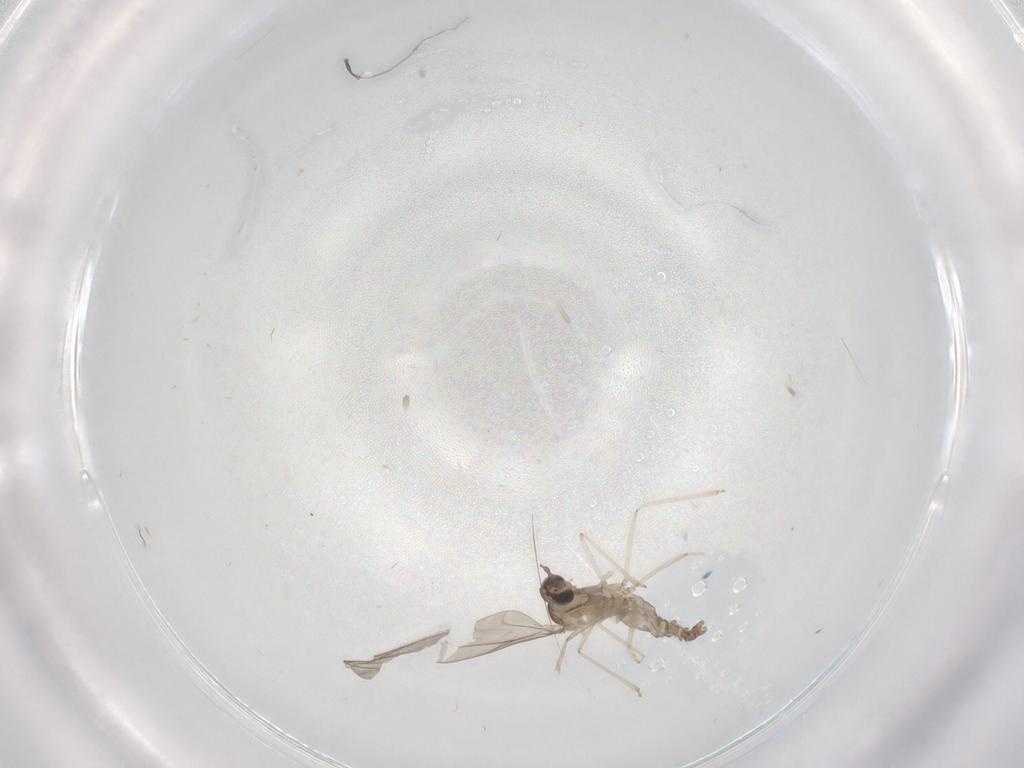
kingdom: Animalia
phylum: Arthropoda
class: Insecta
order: Diptera
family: Cecidomyiidae
